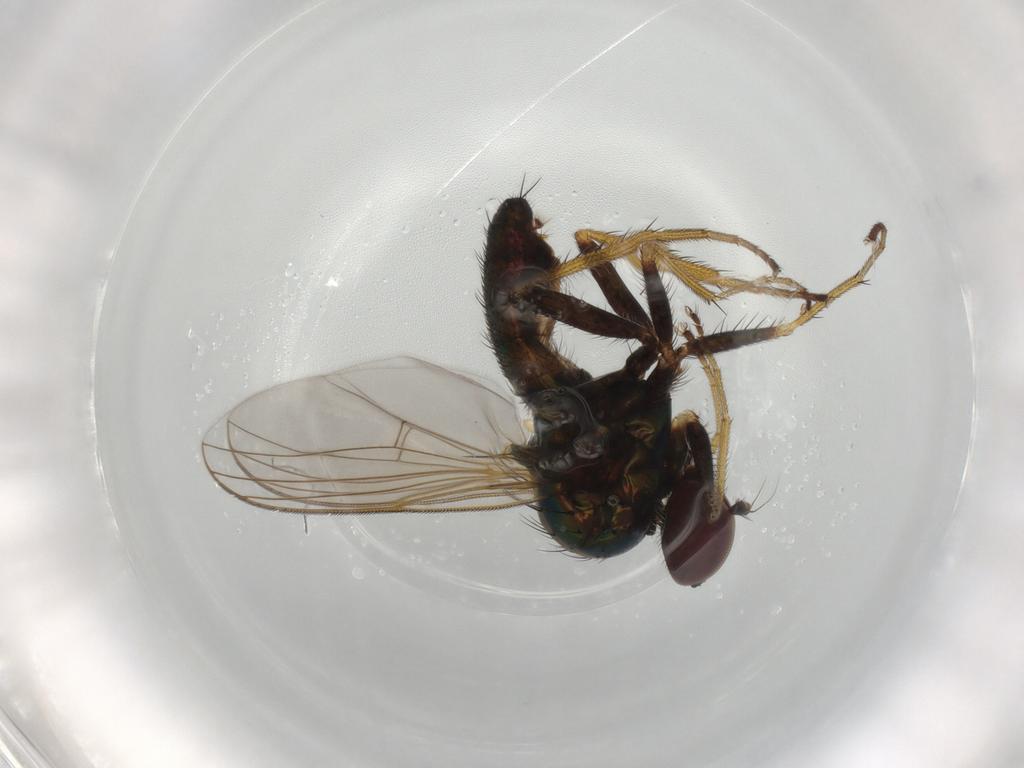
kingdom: Animalia
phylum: Arthropoda
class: Insecta
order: Diptera
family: Dolichopodidae
